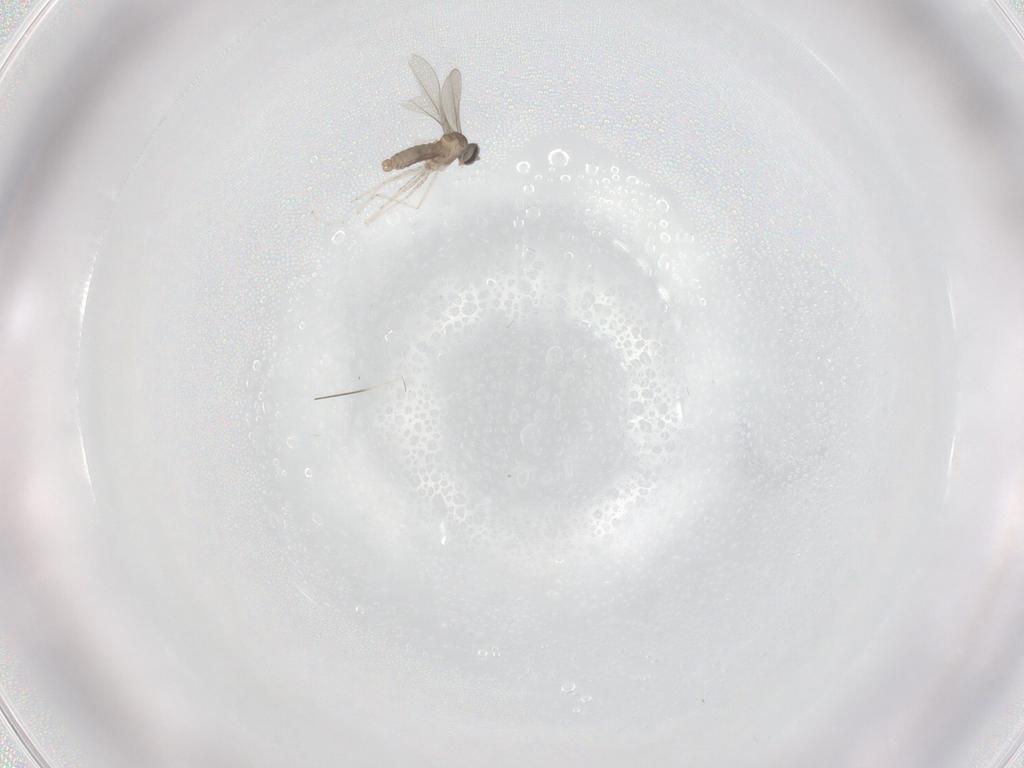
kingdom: Animalia
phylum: Arthropoda
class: Insecta
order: Diptera
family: Cecidomyiidae
